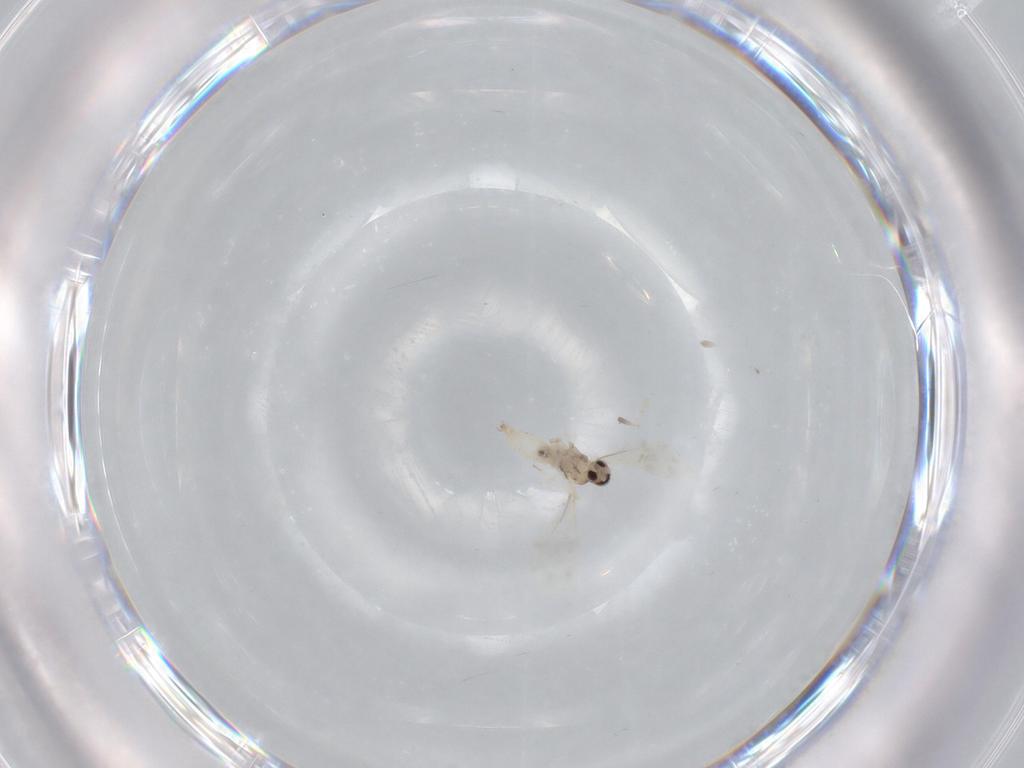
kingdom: Animalia
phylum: Arthropoda
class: Insecta
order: Diptera
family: Cecidomyiidae
